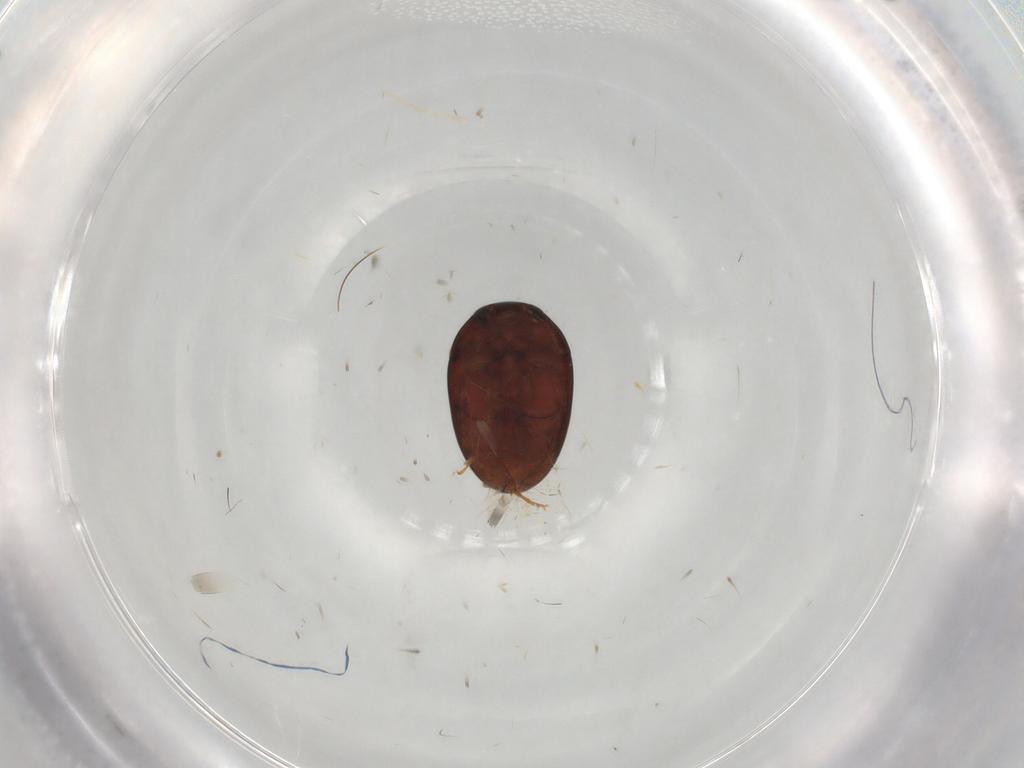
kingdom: Animalia
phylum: Arthropoda
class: Insecta
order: Coleoptera
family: Phalacridae
